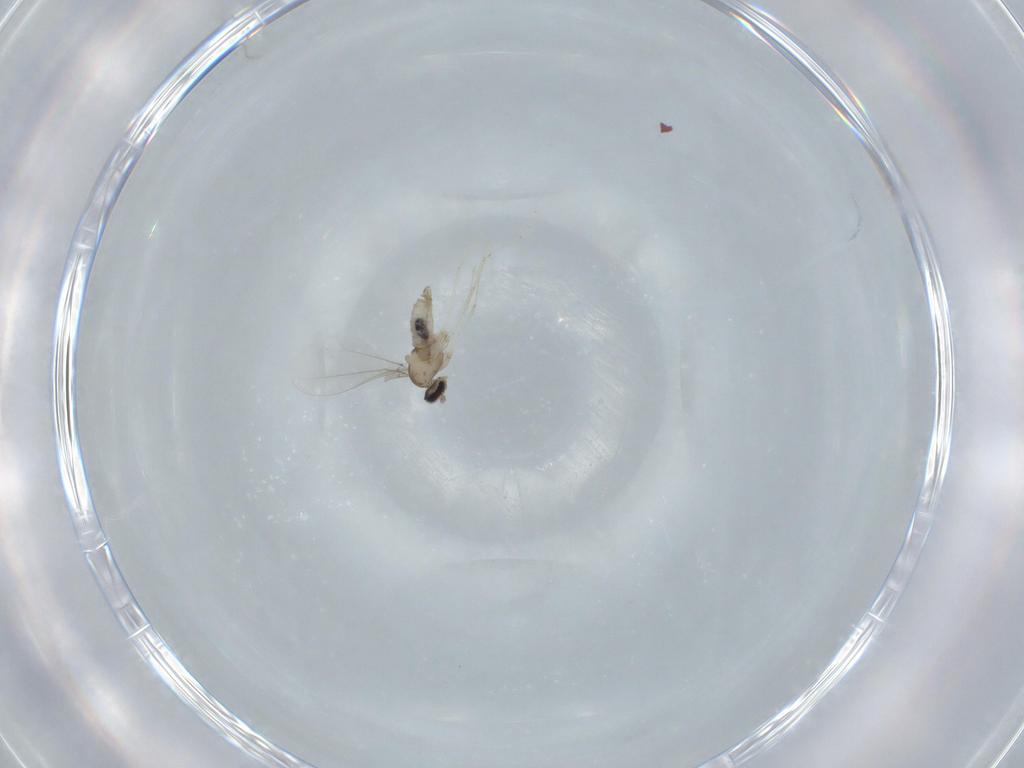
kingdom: Animalia
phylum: Arthropoda
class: Insecta
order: Diptera
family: Cecidomyiidae
